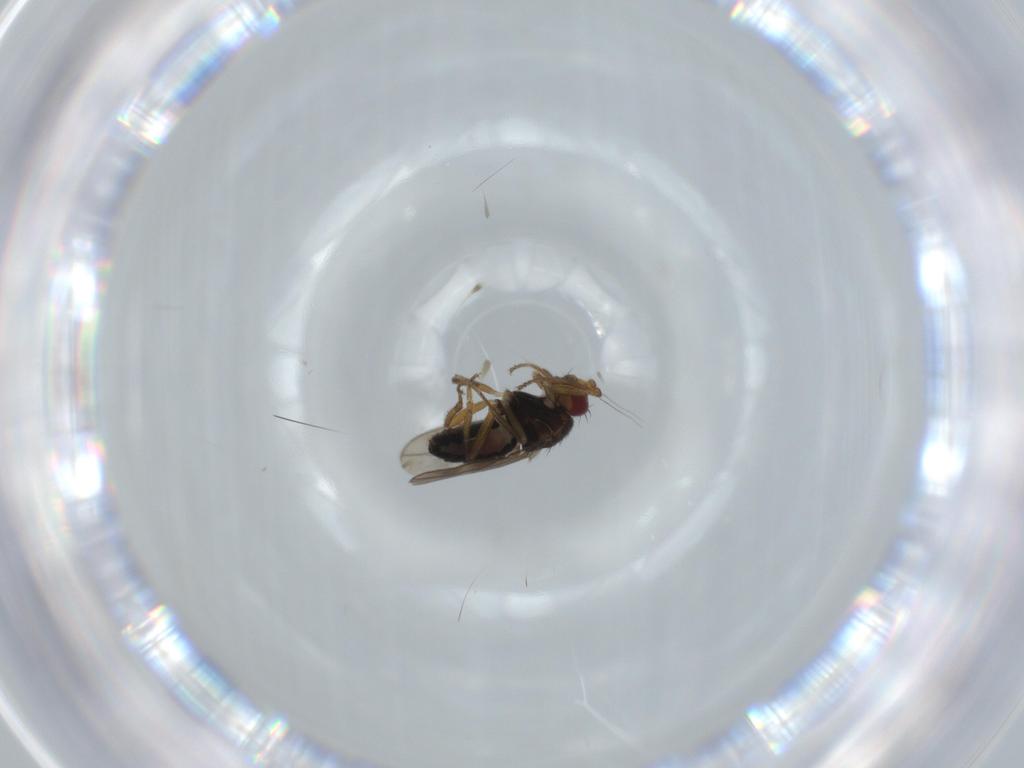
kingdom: Animalia
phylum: Arthropoda
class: Insecta
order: Diptera
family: Sphaeroceridae
